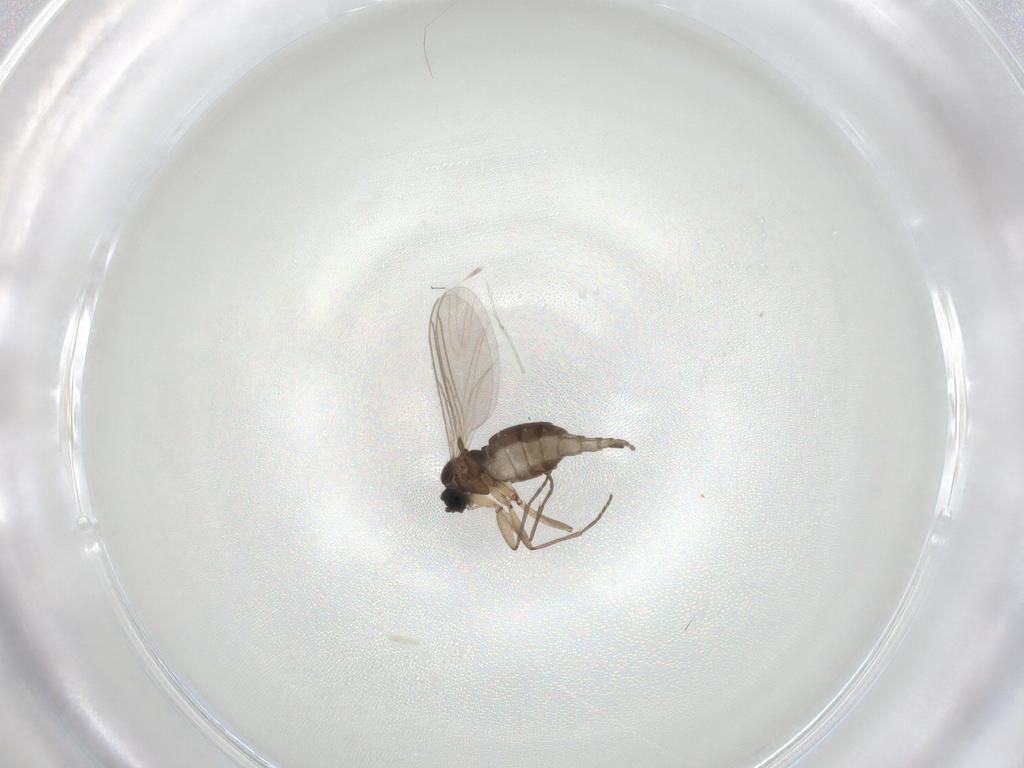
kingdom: Animalia
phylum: Arthropoda
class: Insecta
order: Diptera
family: Sciaridae
